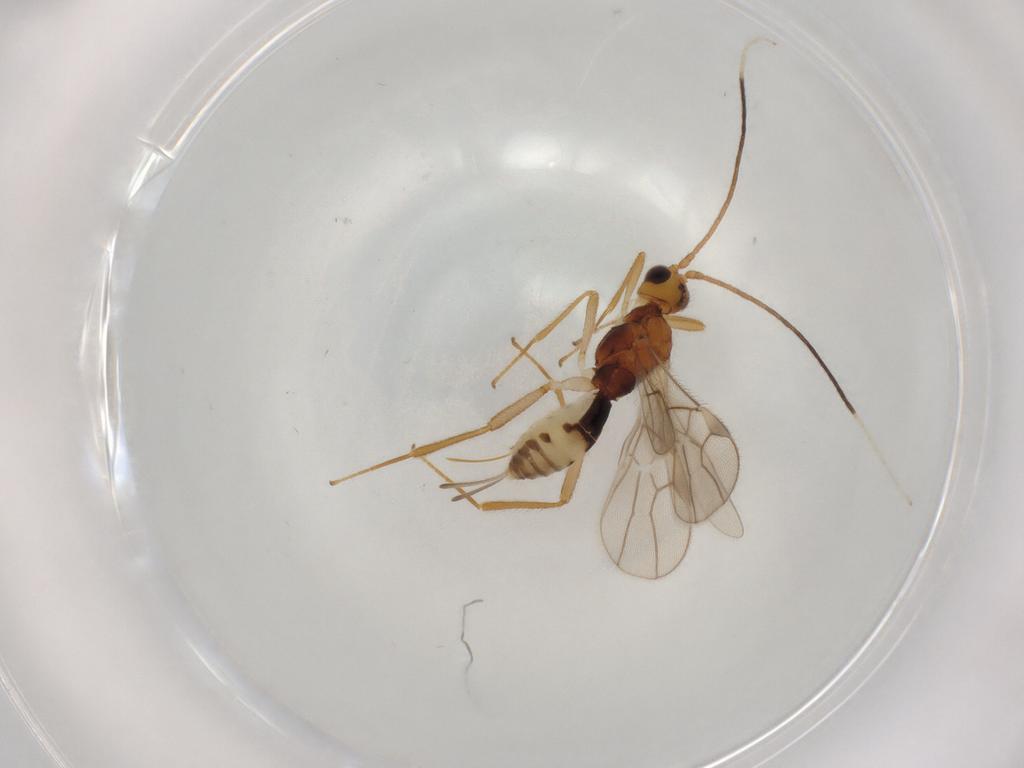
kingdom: Animalia
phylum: Arthropoda
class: Insecta
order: Hymenoptera
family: Braconidae
